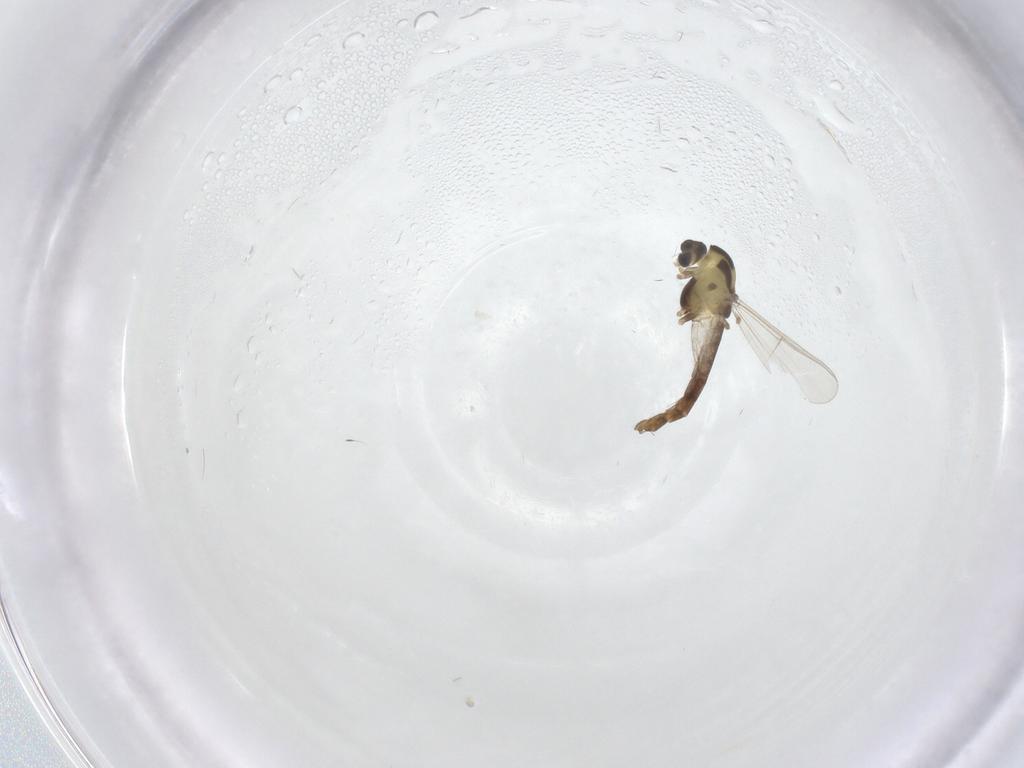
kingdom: Animalia
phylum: Arthropoda
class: Insecta
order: Diptera
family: Chironomidae
